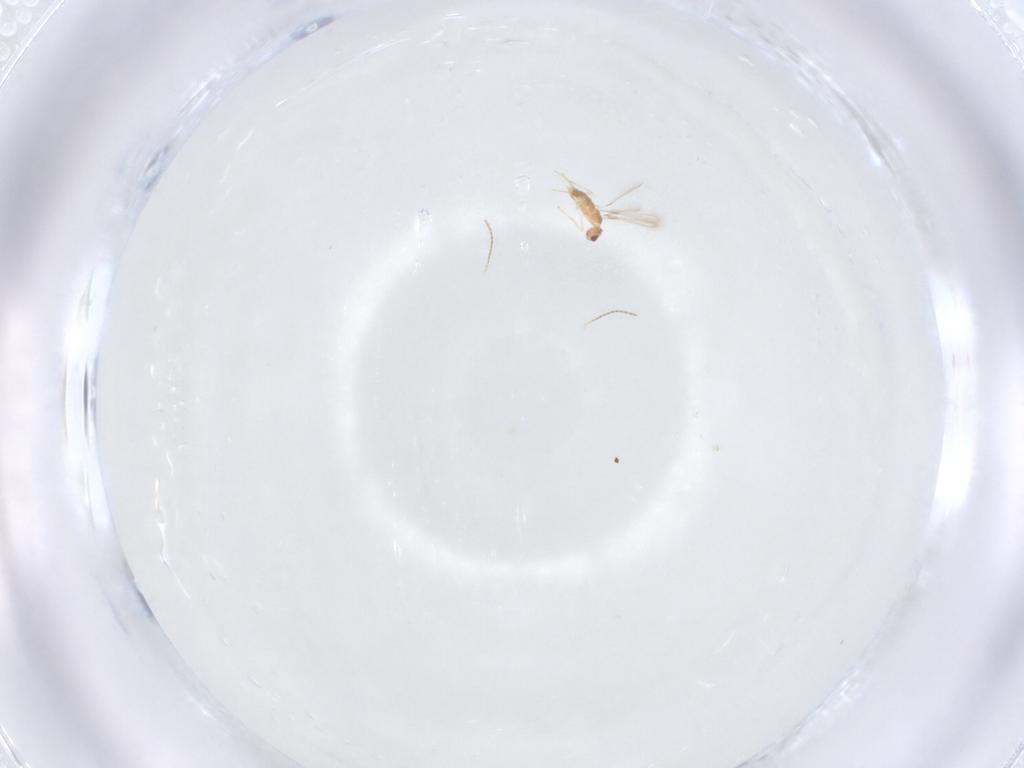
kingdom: Animalia
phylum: Arthropoda
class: Insecta
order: Hymenoptera
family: Mymaridae
